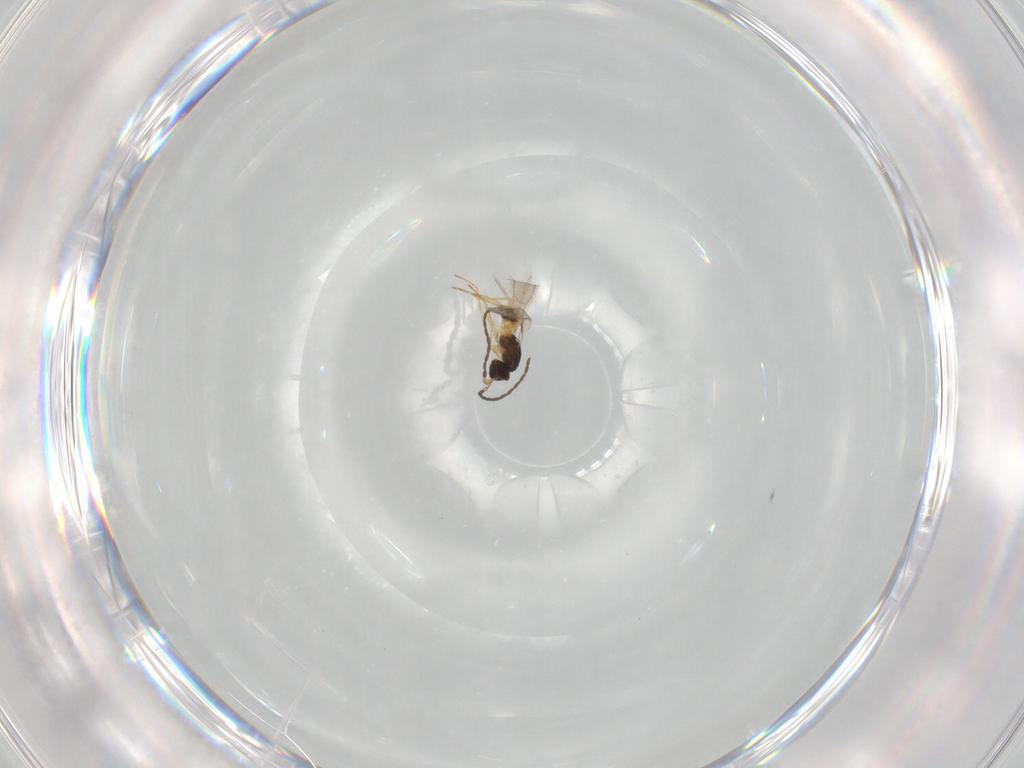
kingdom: Animalia
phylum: Arthropoda
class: Insecta
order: Hymenoptera
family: Mymaridae
